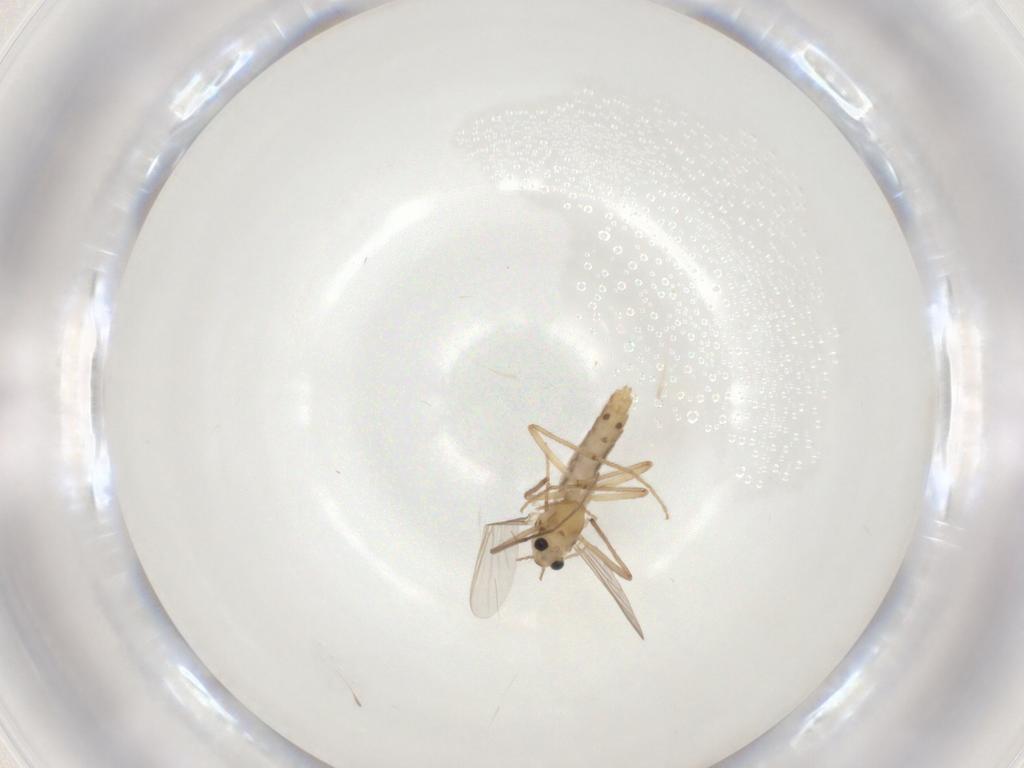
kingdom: Animalia
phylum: Arthropoda
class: Insecta
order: Diptera
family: Chironomidae
